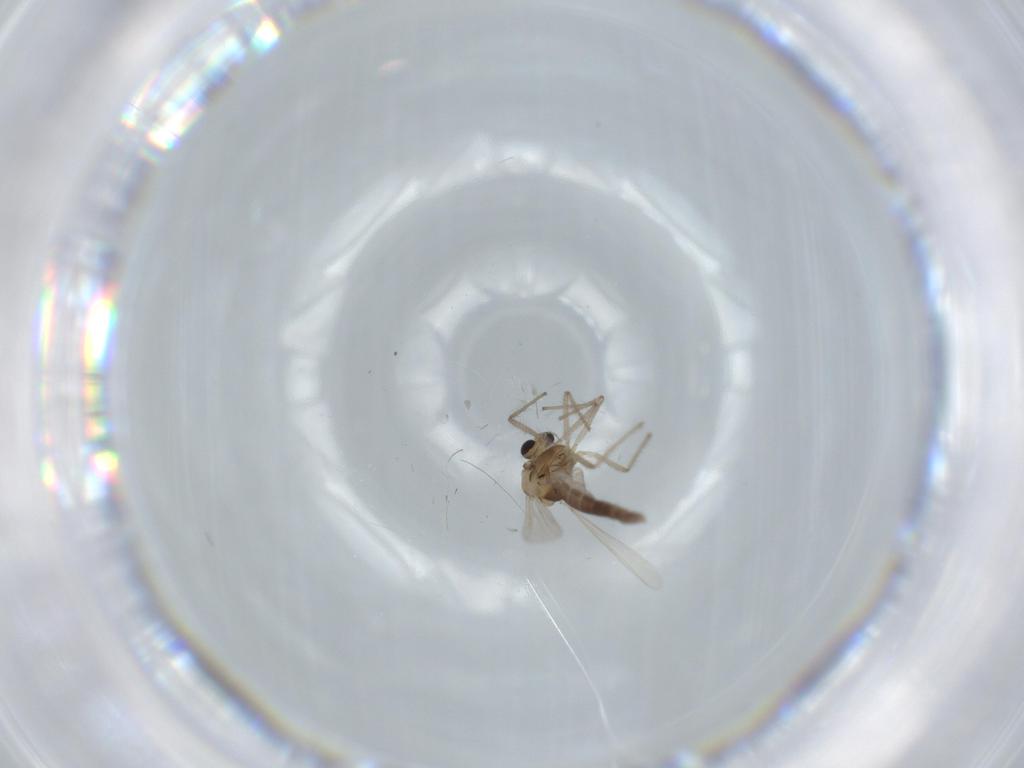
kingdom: Animalia
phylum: Arthropoda
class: Insecta
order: Diptera
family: Chironomidae
